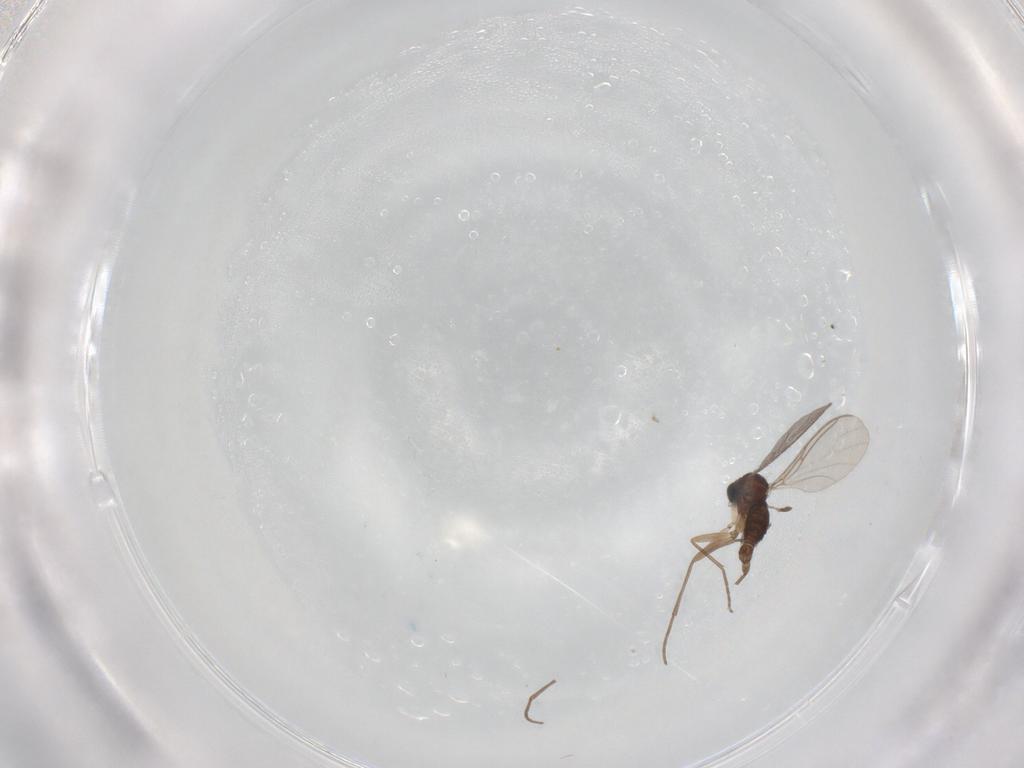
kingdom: Animalia
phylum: Arthropoda
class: Insecta
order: Diptera
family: Sciaridae
